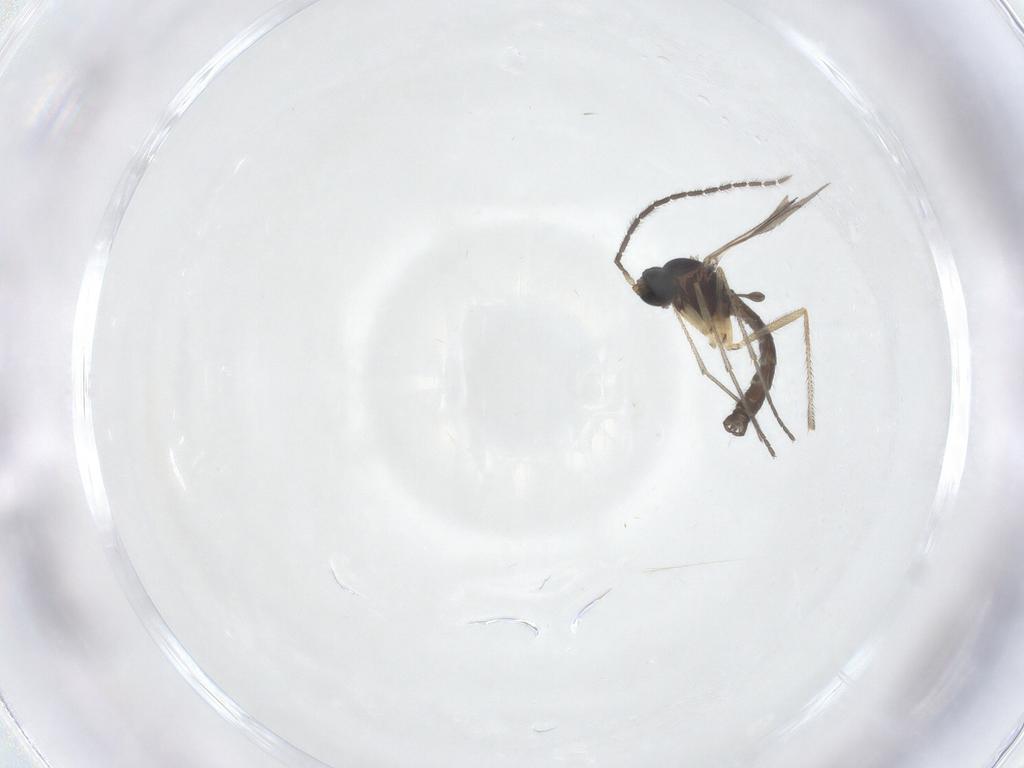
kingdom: Animalia
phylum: Arthropoda
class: Insecta
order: Diptera
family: Sciaridae
